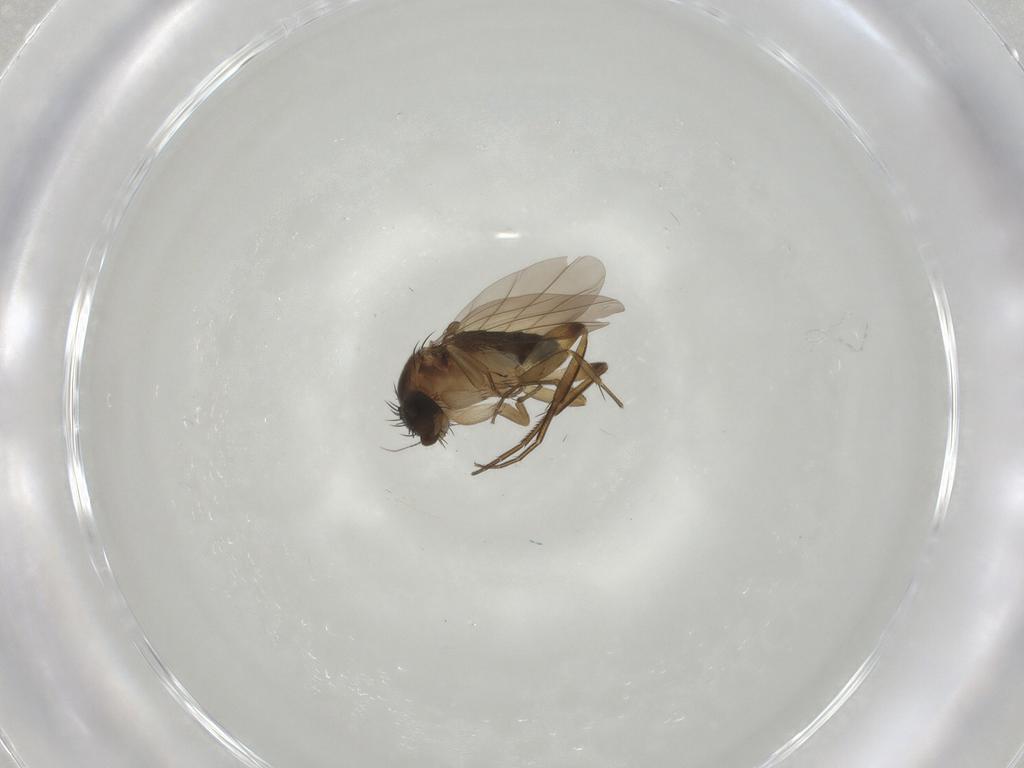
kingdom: Animalia
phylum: Arthropoda
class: Insecta
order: Diptera
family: Phoridae
